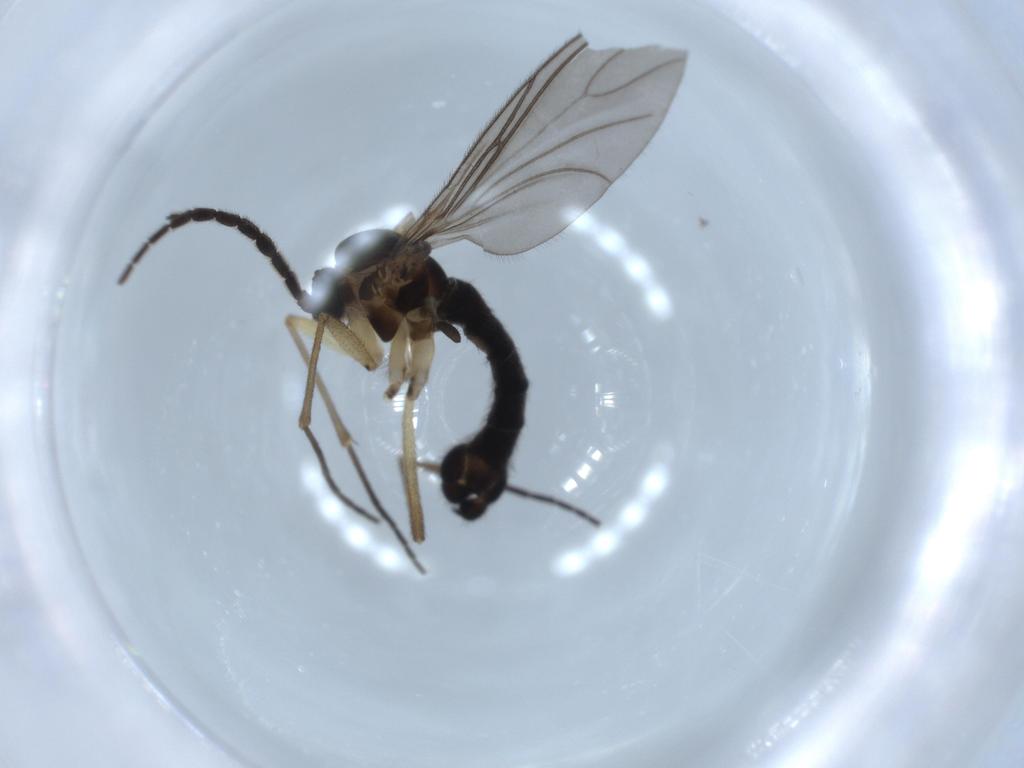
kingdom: Animalia
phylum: Arthropoda
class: Insecta
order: Diptera
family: Sciaridae
